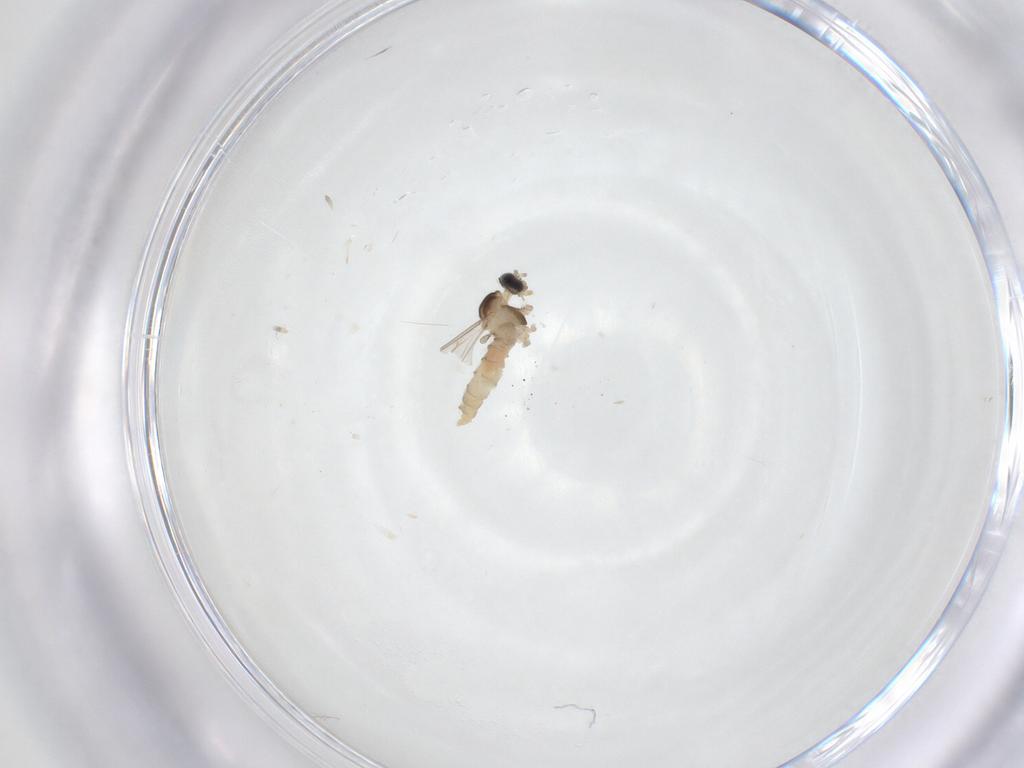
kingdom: Animalia
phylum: Arthropoda
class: Insecta
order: Diptera
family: Cecidomyiidae
